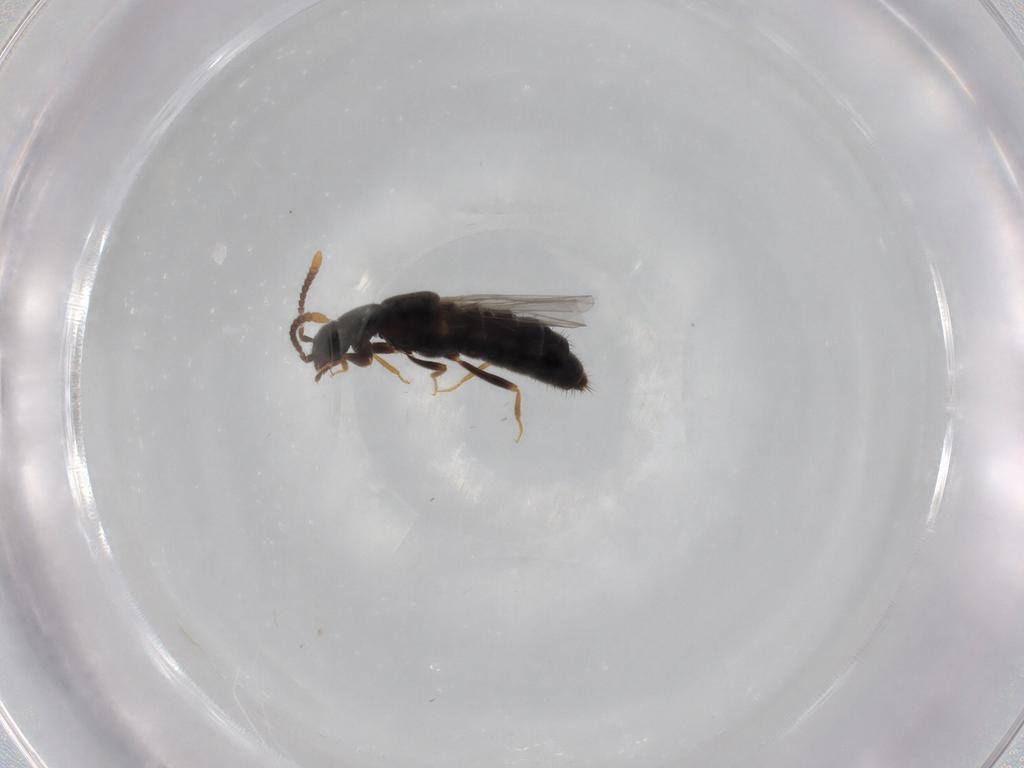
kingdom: Animalia
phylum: Arthropoda
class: Insecta
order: Coleoptera
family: Staphylinidae
